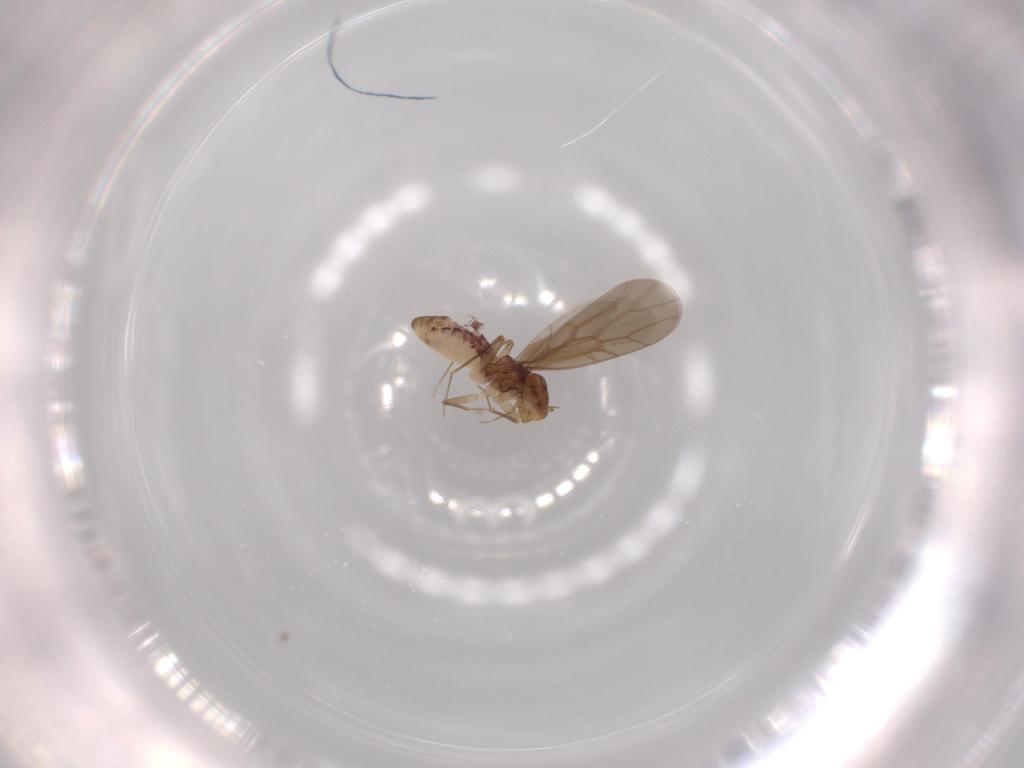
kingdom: Animalia
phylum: Arthropoda
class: Insecta
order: Psocodea
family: Lepidopsocidae
